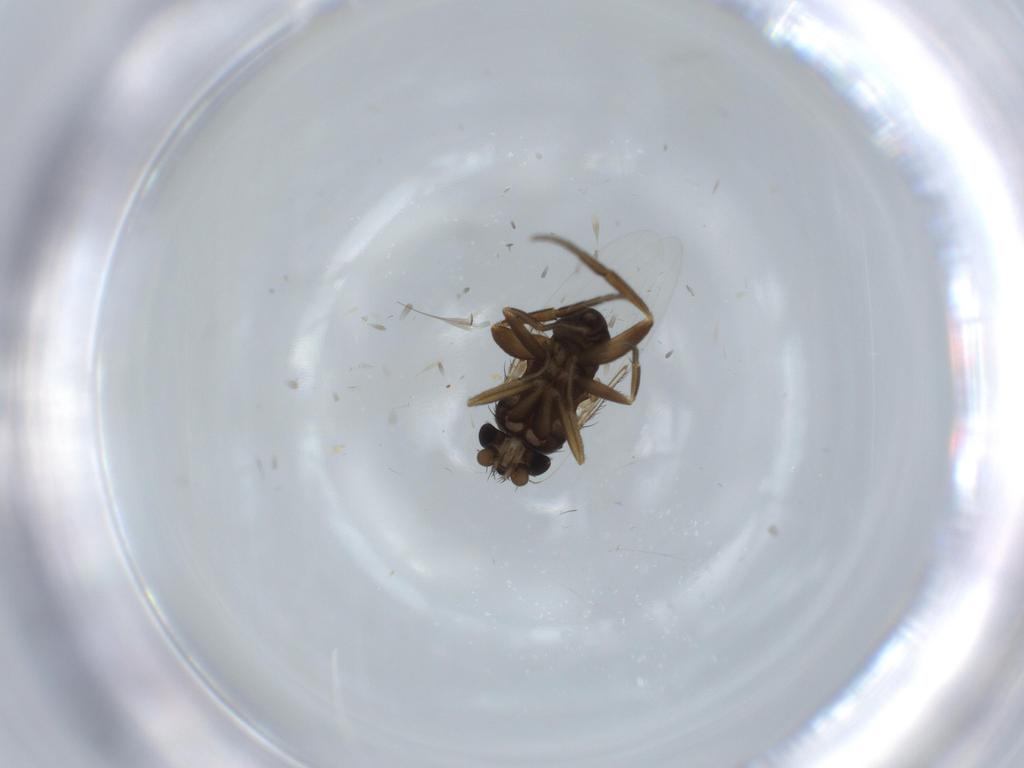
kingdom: Animalia
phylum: Arthropoda
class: Insecta
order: Diptera
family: Phoridae
